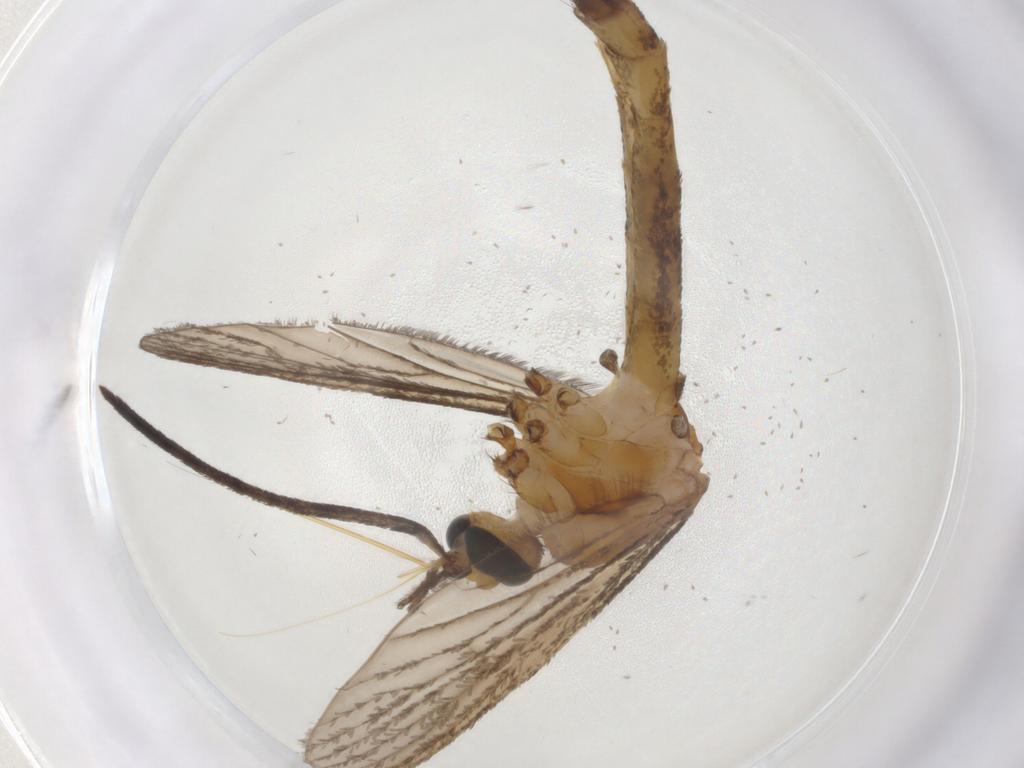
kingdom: Animalia
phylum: Arthropoda
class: Insecta
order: Diptera
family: Cecidomyiidae
